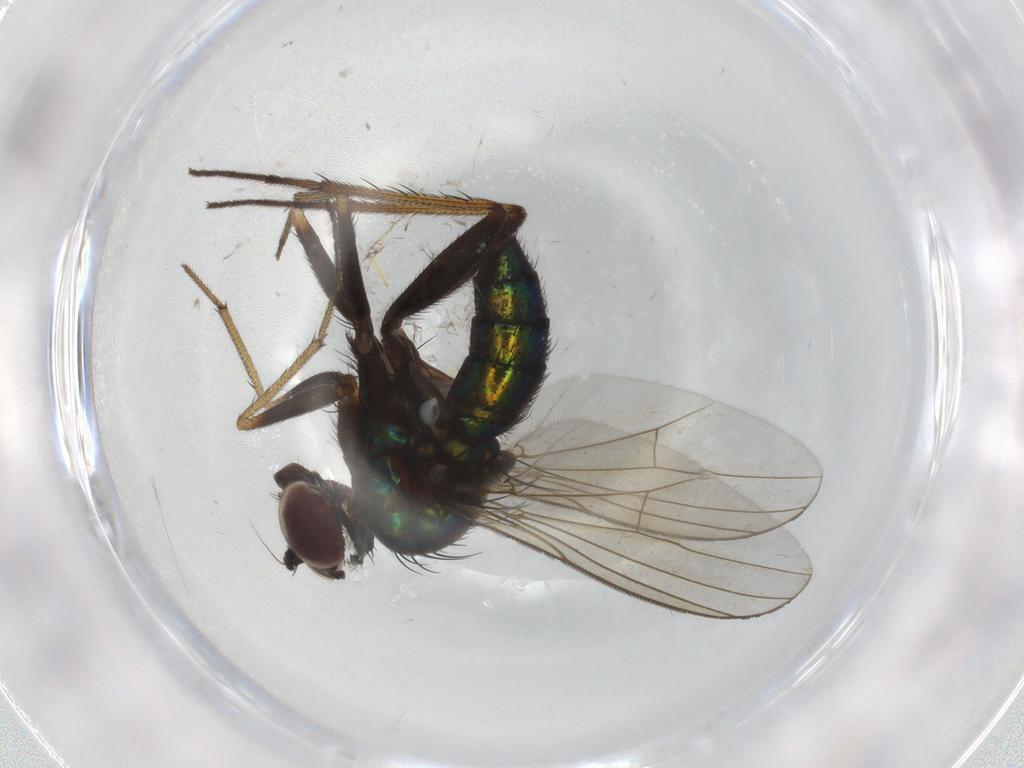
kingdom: Animalia
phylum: Arthropoda
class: Insecta
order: Diptera
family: Dolichopodidae
